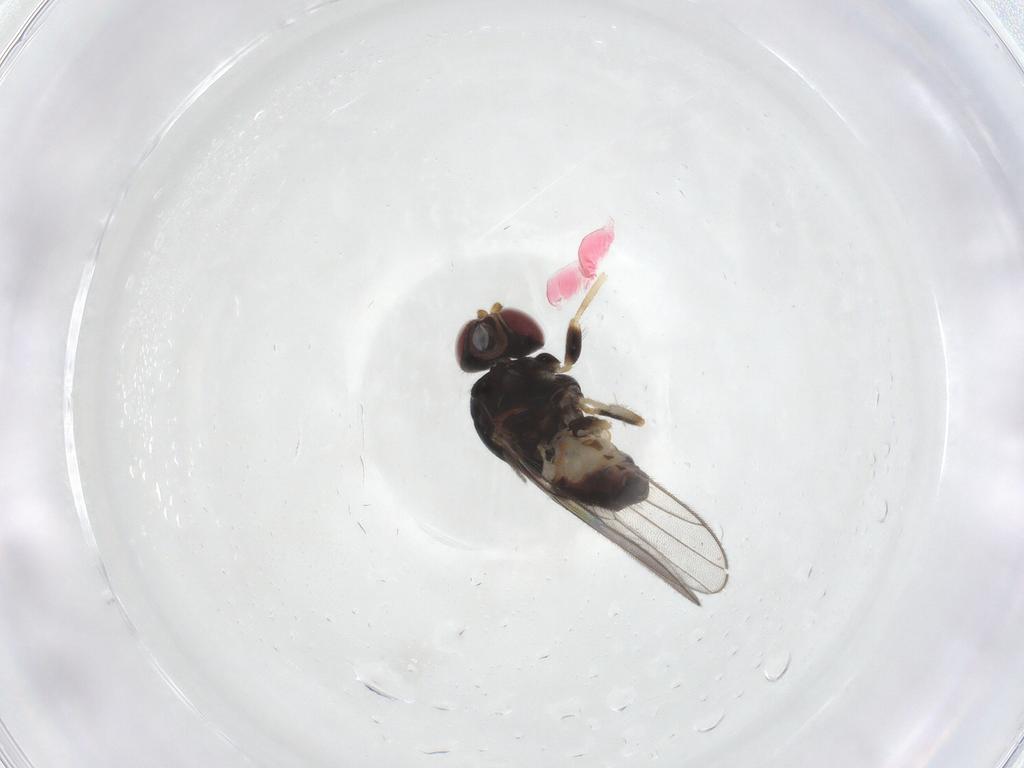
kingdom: Animalia
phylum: Arthropoda
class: Insecta
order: Diptera
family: Chloropidae
